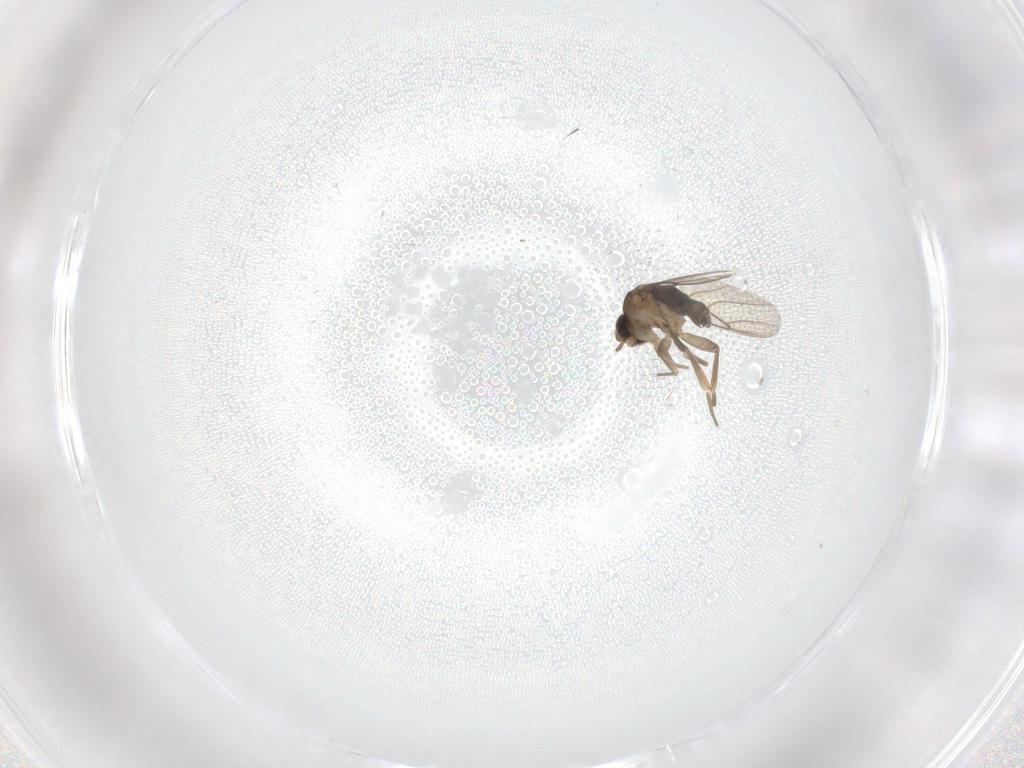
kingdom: Animalia
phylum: Arthropoda
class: Insecta
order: Diptera
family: Phoridae
